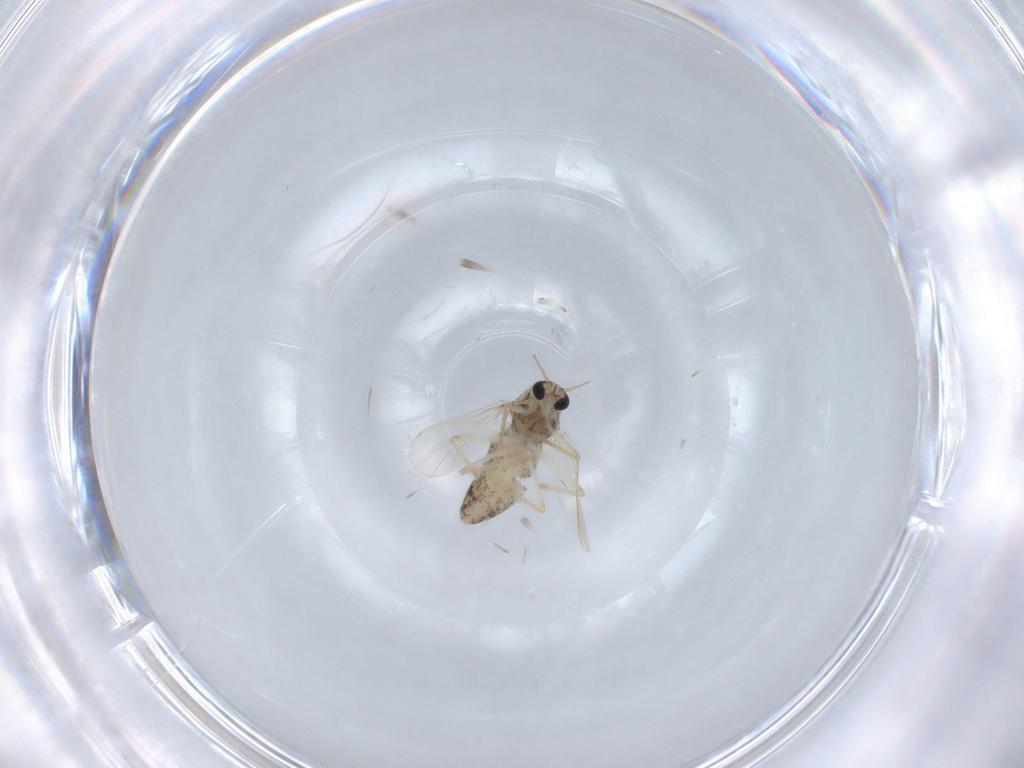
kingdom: Animalia
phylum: Arthropoda
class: Insecta
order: Diptera
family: Chironomidae
